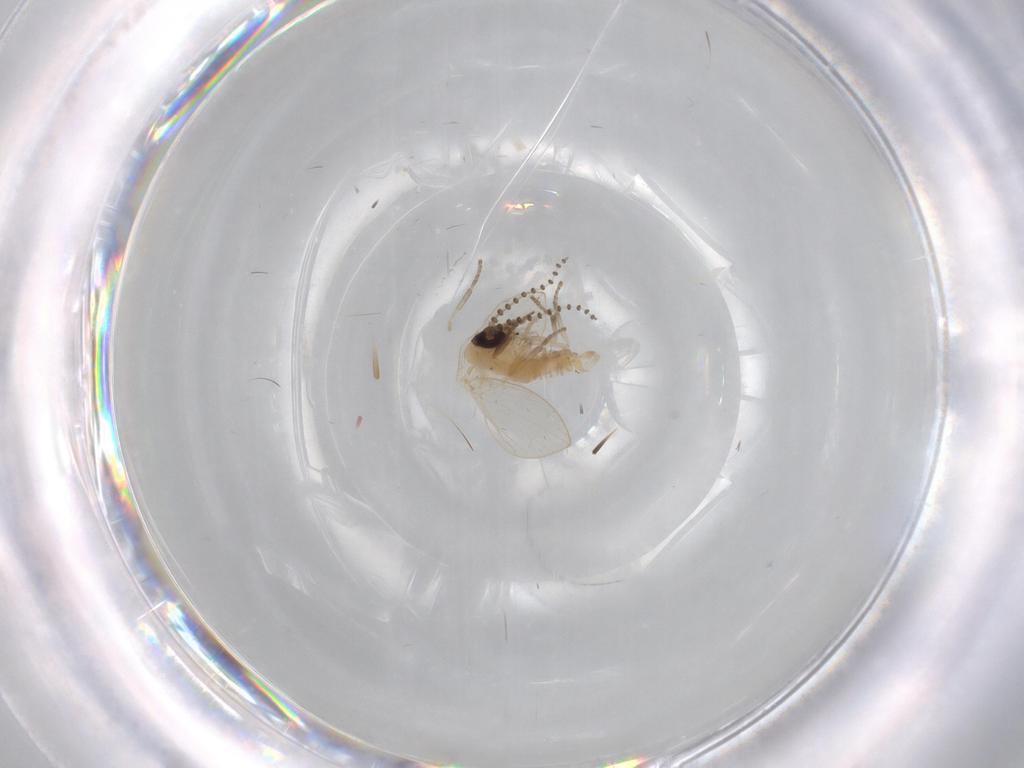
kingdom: Animalia
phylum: Arthropoda
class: Insecta
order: Diptera
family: Psychodidae
